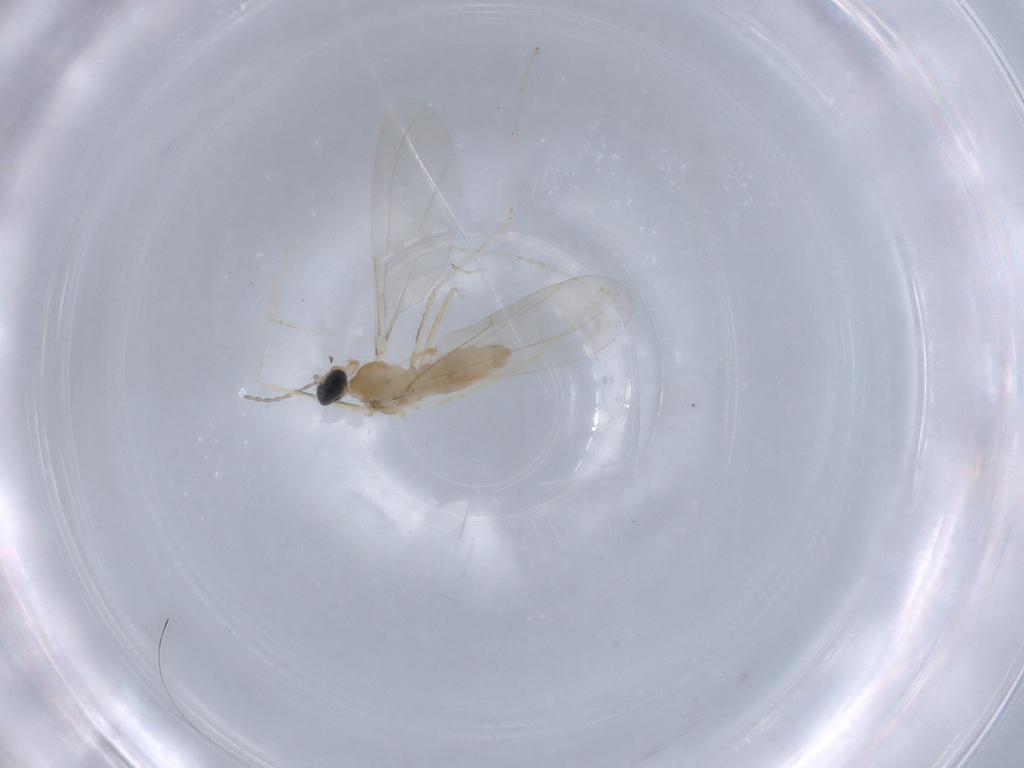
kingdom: Animalia
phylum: Arthropoda
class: Insecta
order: Diptera
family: Cecidomyiidae
